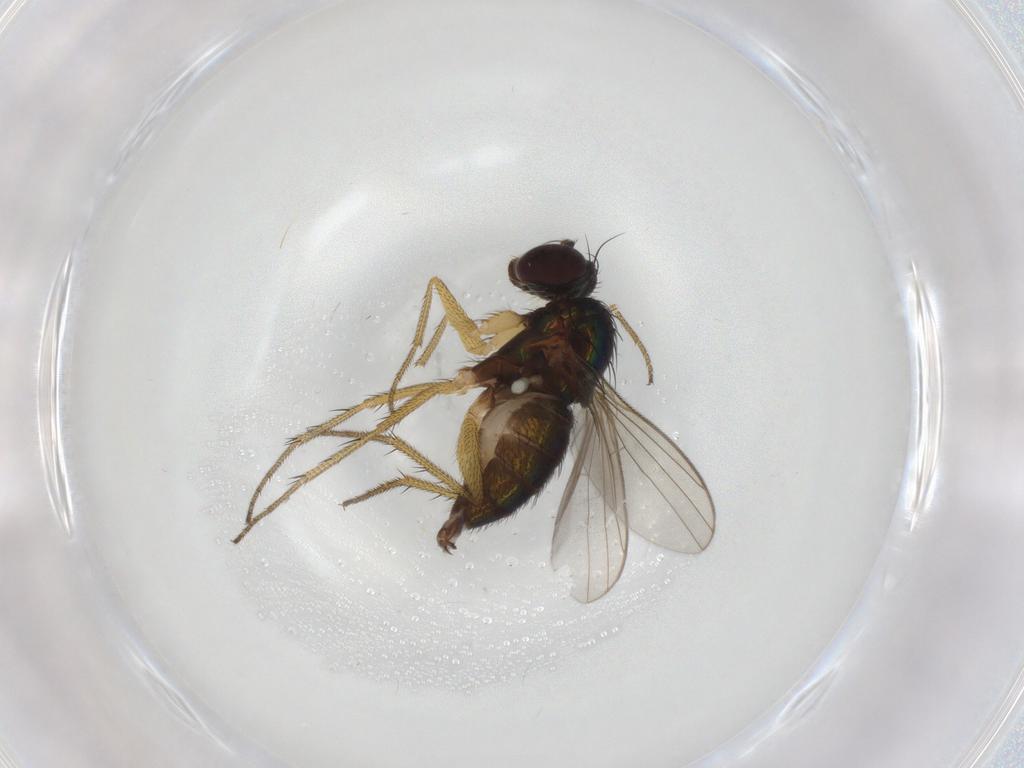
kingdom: Animalia
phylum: Arthropoda
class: Insecta
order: Diptera
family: Dolichopodidae
